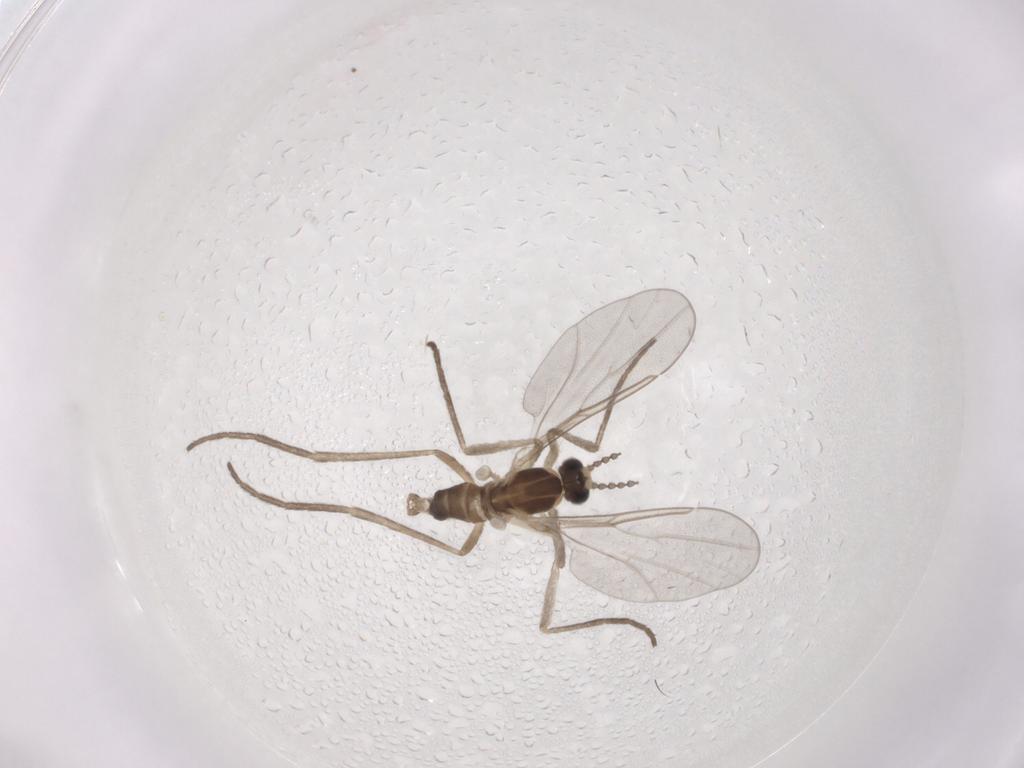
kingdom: Animalia
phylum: Arthropoda
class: Insecta
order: Diptera
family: Cecidomyiidae
